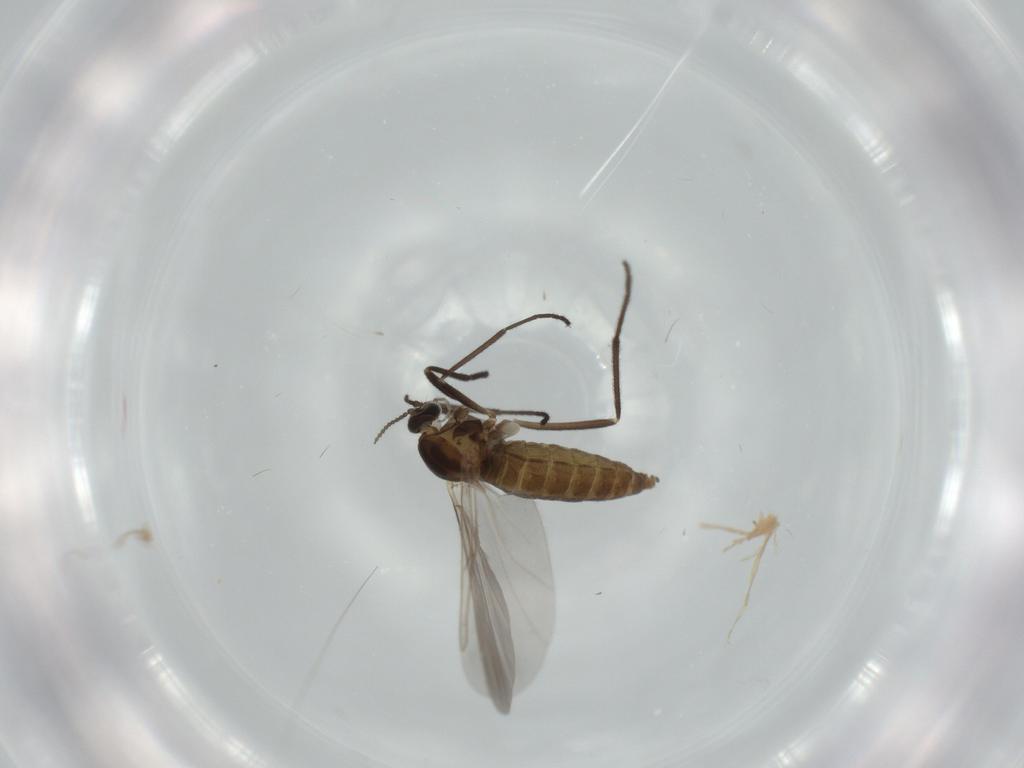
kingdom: Animalia
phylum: Arthropoda
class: Insecta
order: Diptera
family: Cecidomyiidae
